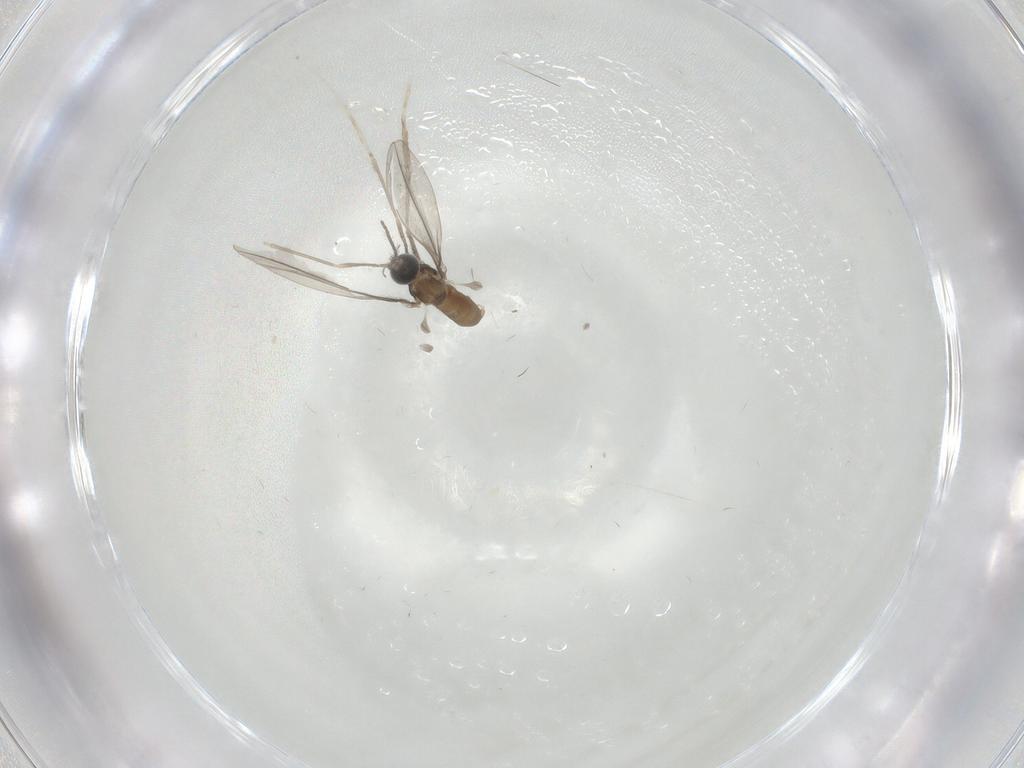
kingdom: Animalia
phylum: Arthropoda
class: Insecta
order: Diptera
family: Cecidomyiidae
